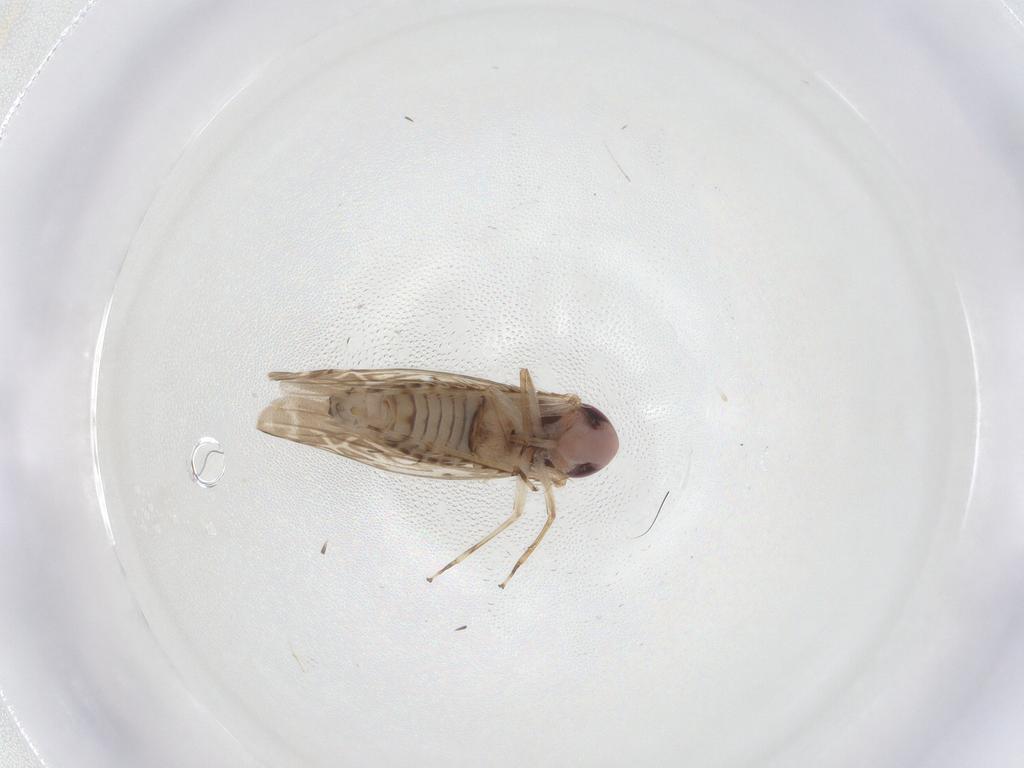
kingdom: Animalia
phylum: Arthropoda
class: Insecta
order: Hemiptera
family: Cicadellidae
